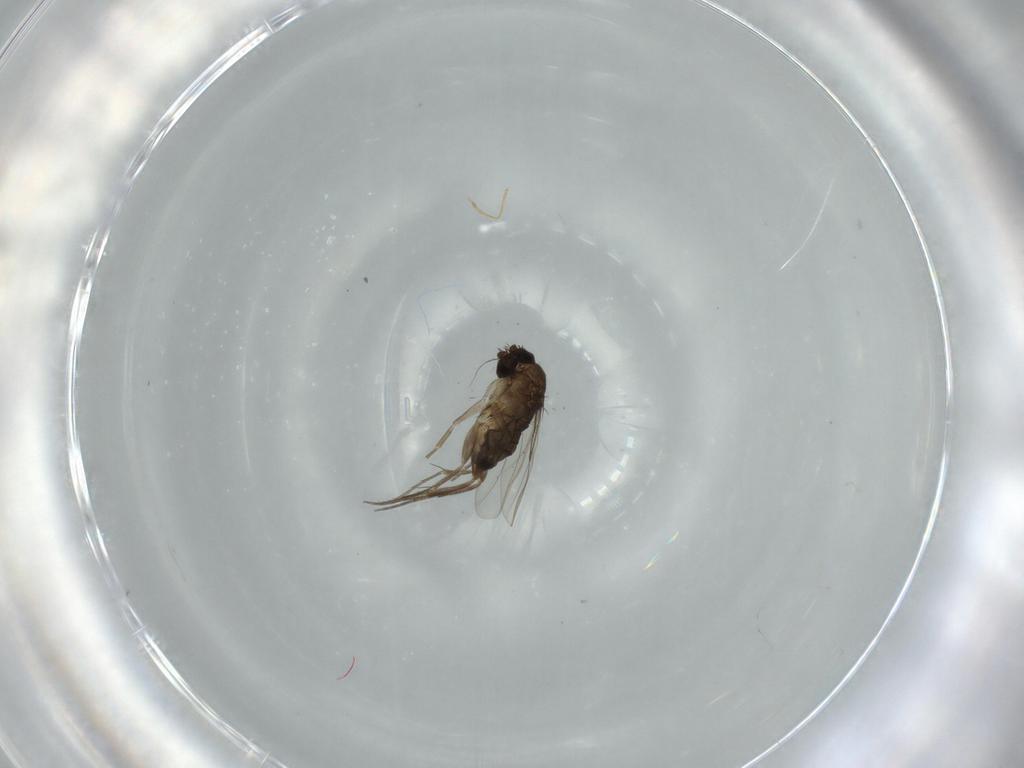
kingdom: Animalia
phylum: Arthropoda
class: Insecta
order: Diptera
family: Phoridae
